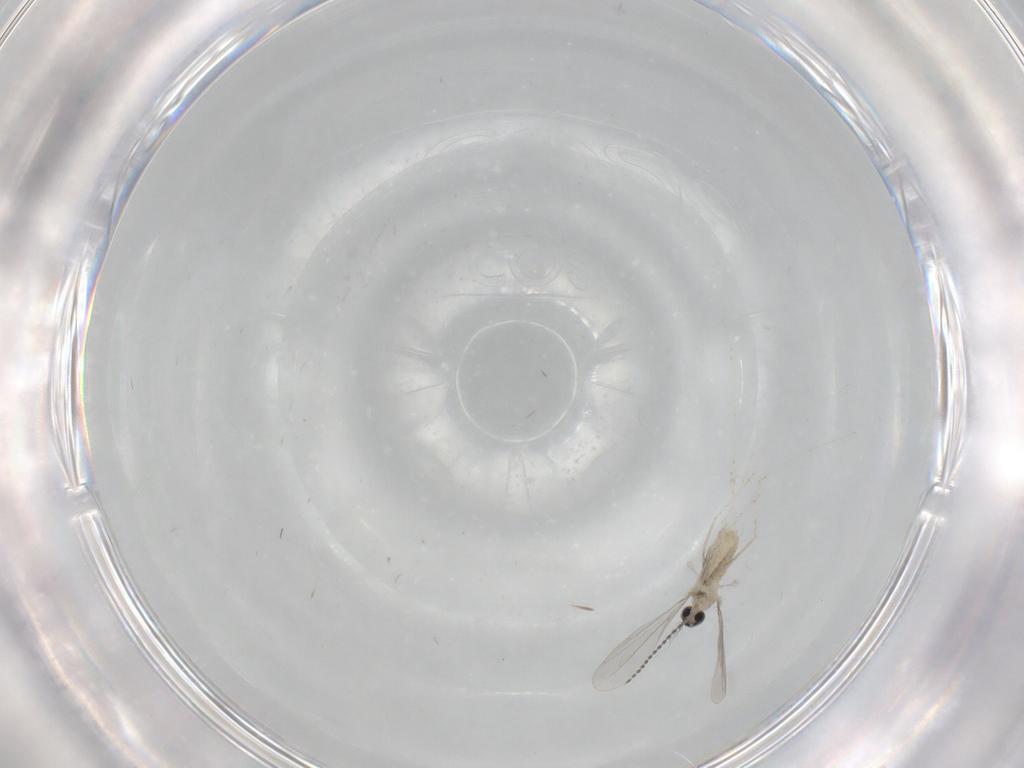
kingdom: Animalia
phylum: Arthropoda
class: Insecta
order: Diptera
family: Cecidomyiidae
